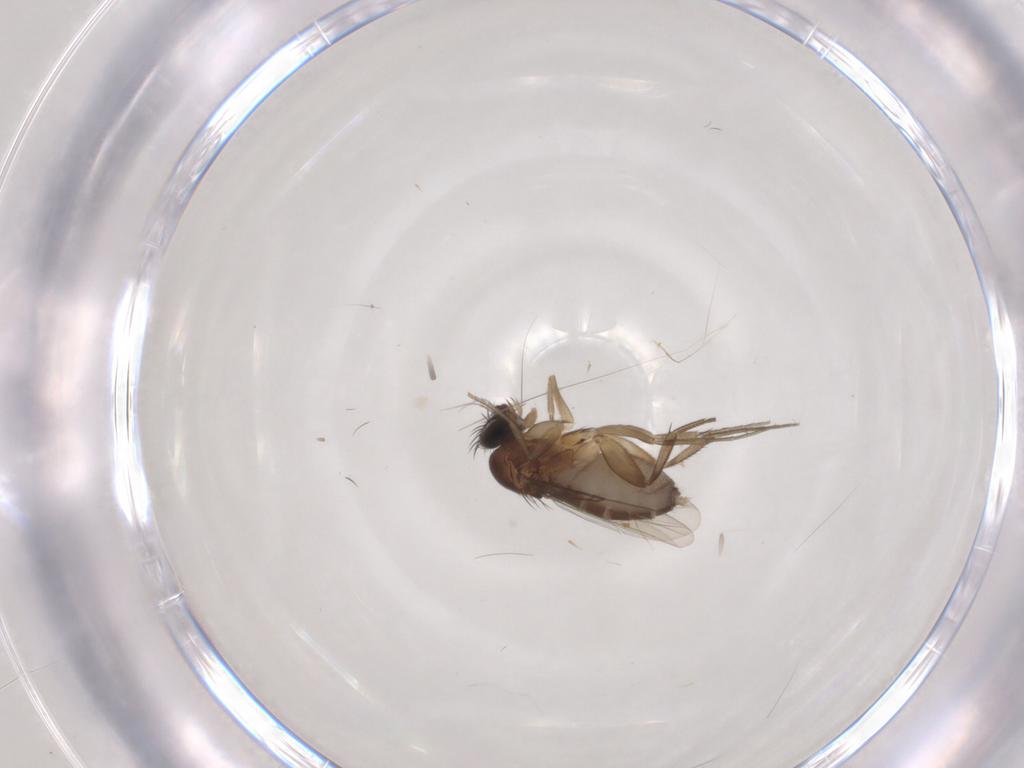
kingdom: Animalia
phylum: Arthropoda
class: Insecta
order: Diptera
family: Phoridae
